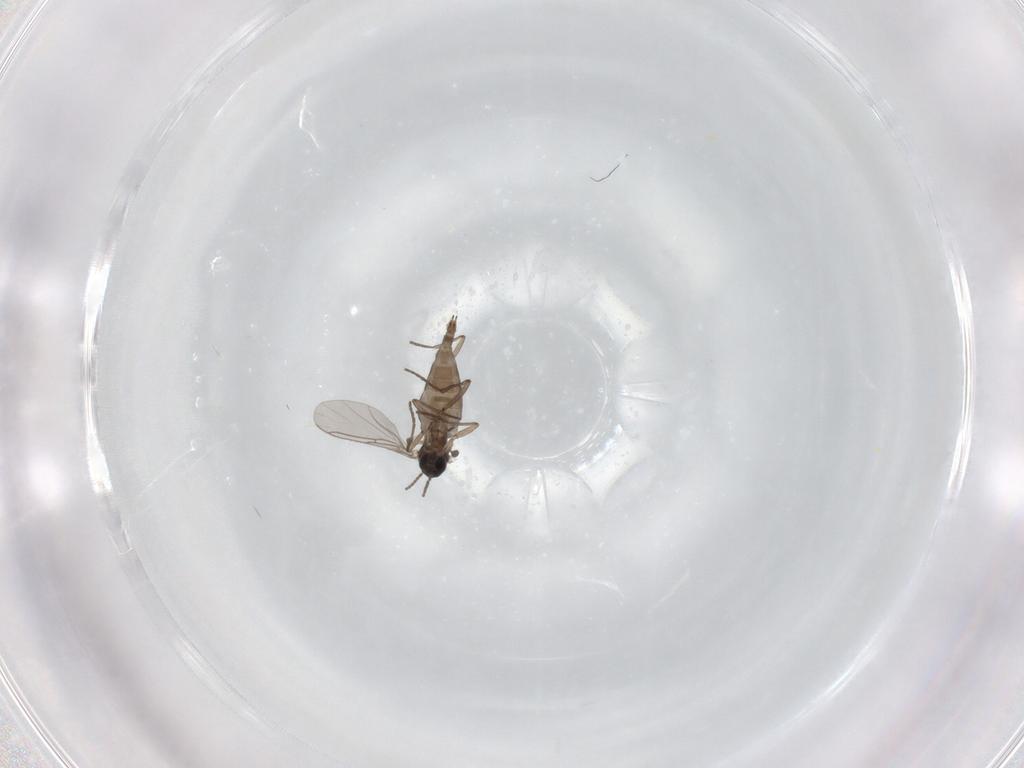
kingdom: Animalia
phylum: Arthropoda
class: Insecta
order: Diptera
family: Sciaridae
